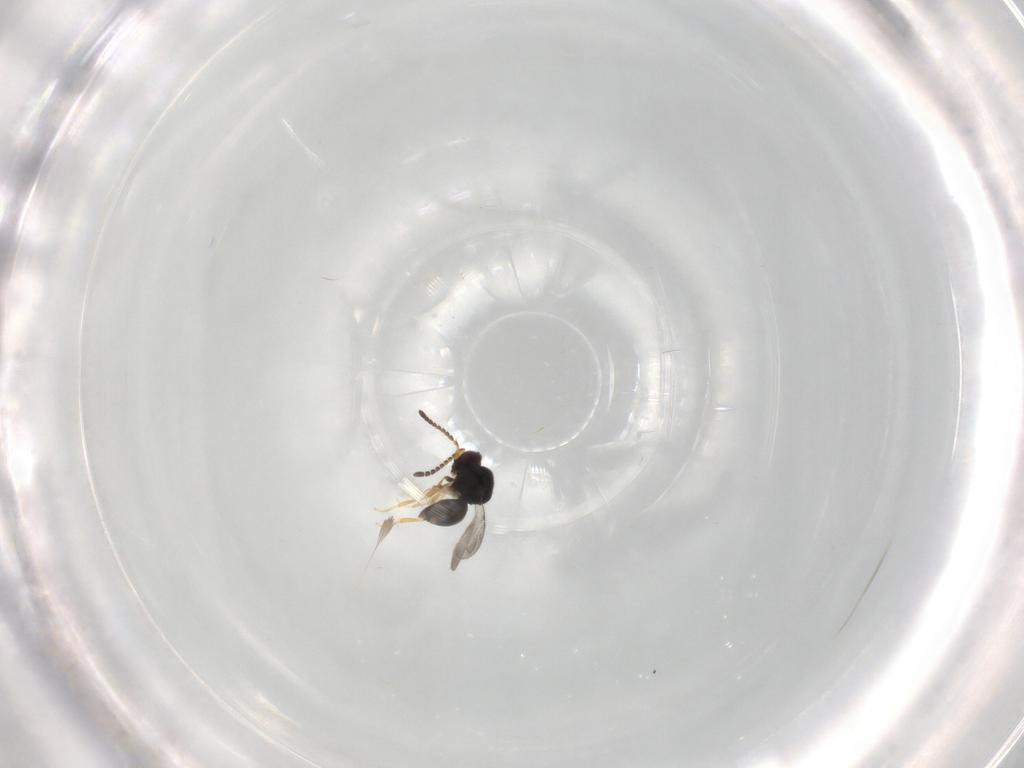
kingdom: Animalia
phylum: Arthropoda
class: Insecta
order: Hymenoptera
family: Ceraphronidae
